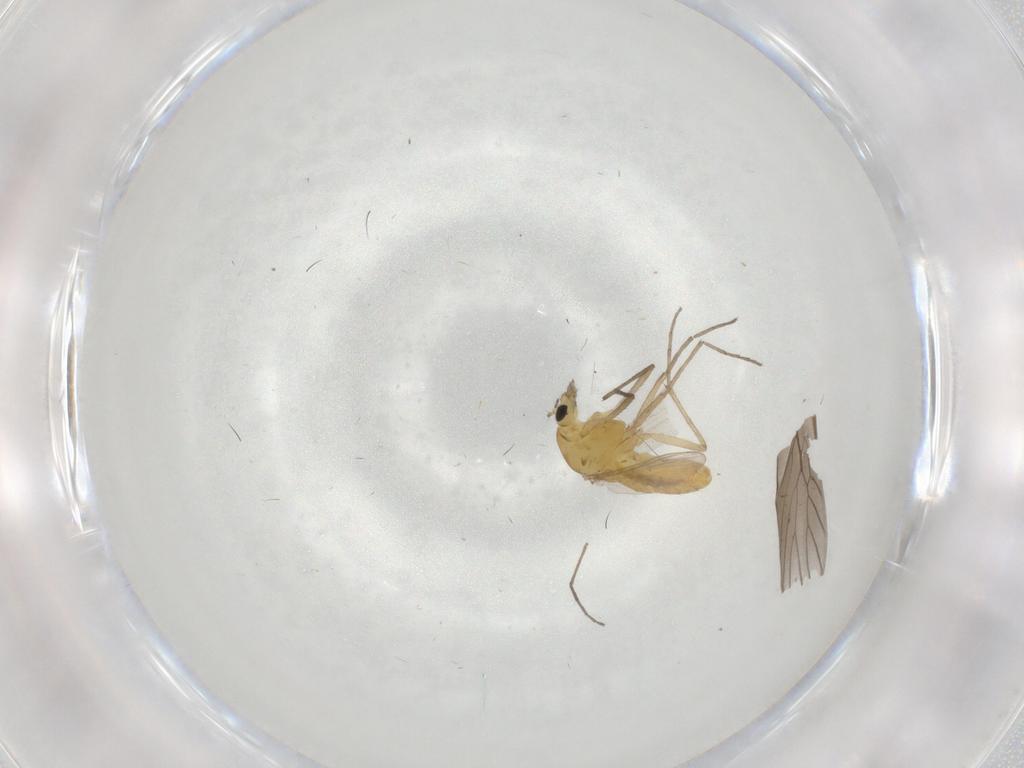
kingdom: Animalia
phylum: Arthropoda
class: Insecta
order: Diptera
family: Chironomidae
